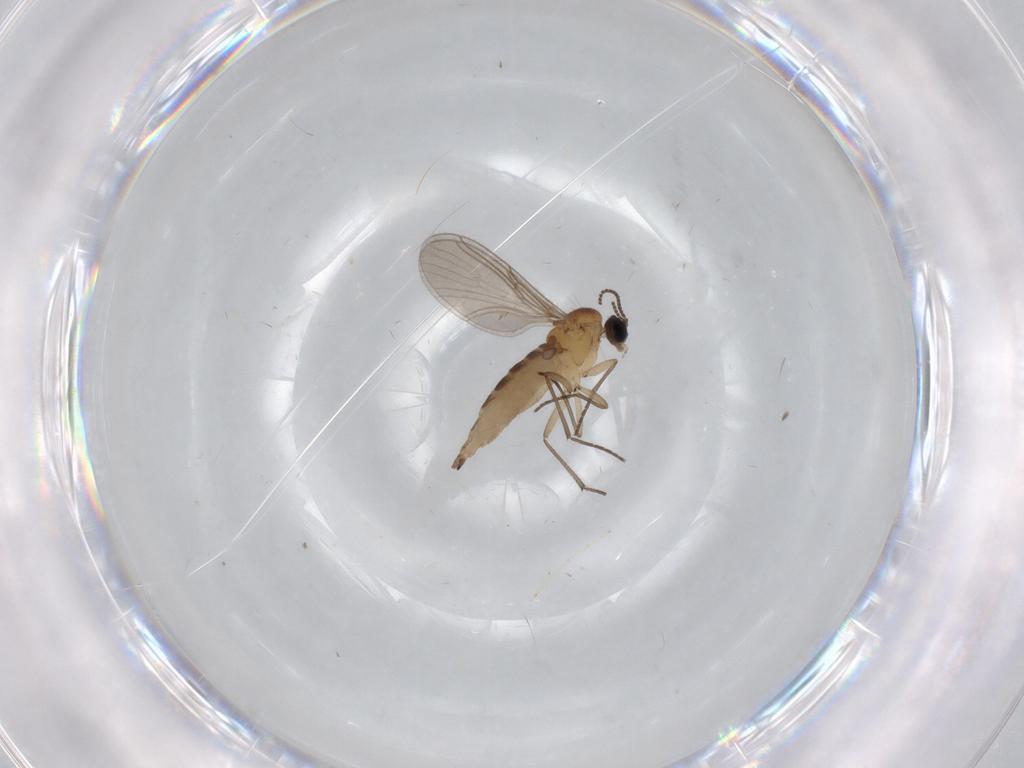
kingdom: Animalia
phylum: Arthropoda
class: Insecta
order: Diptera
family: Sciaridae
